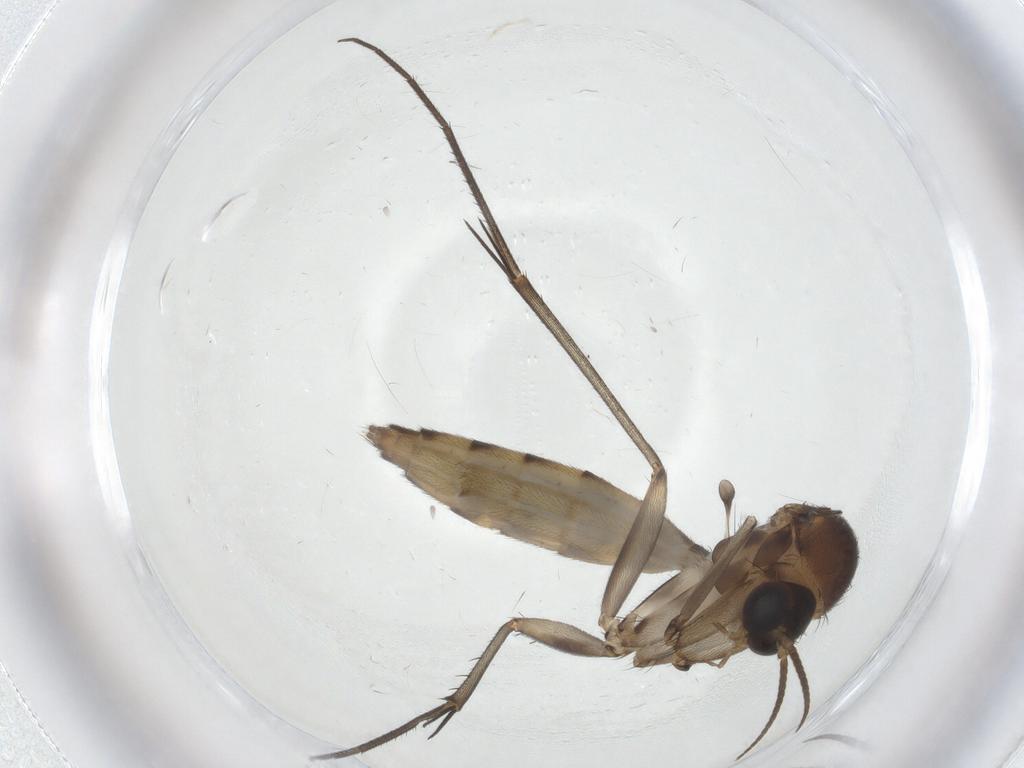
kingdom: Animalia
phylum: Arthropoda
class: Insecta
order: Diptera
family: Mycetophilidae
